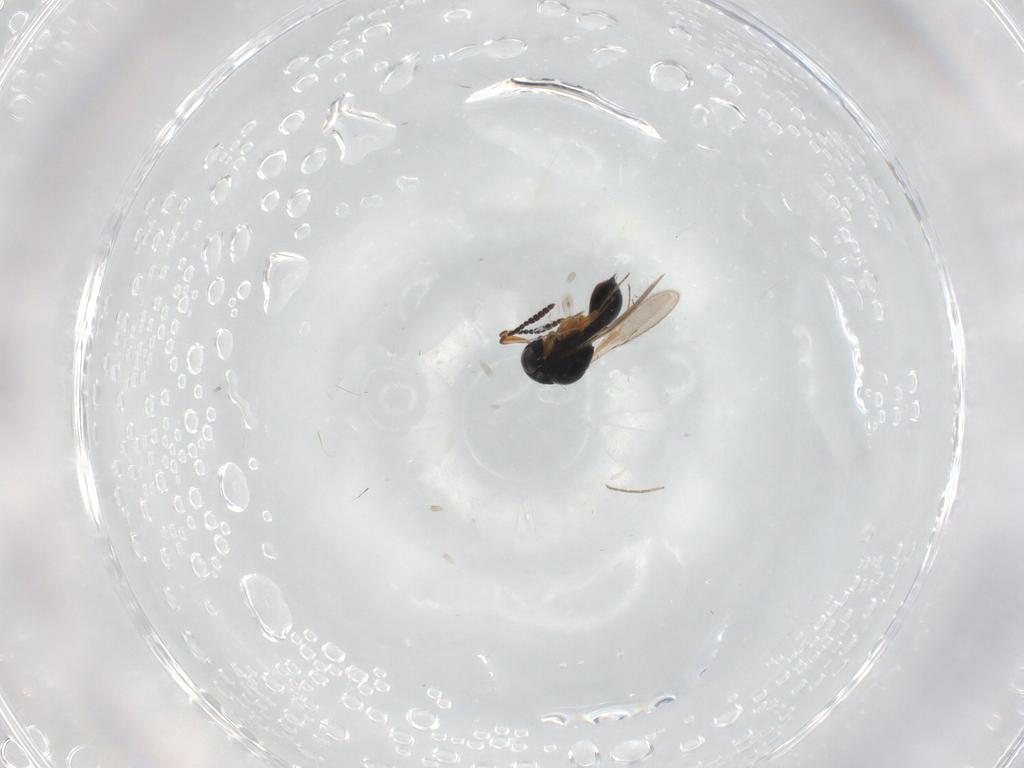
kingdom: Animalia
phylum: Arthropoda
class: Insecta
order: Hymenoptera
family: Scelionidae
